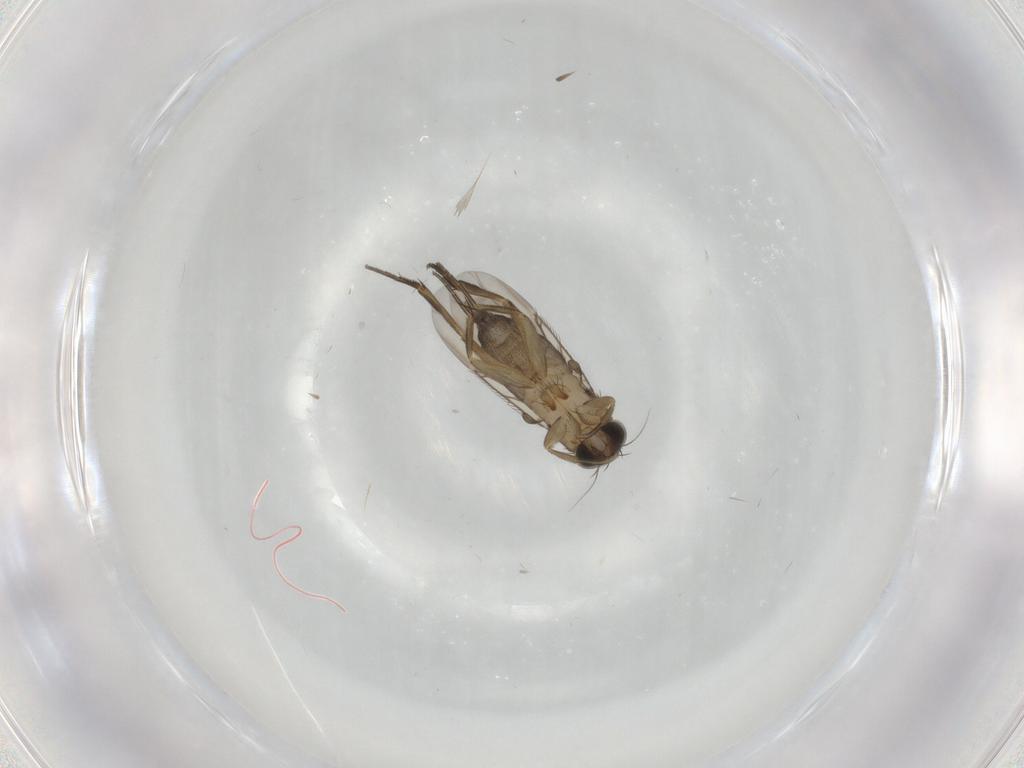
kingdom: Animalia
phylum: Arthropoda
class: Insecta
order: Diptera
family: Phoridae
